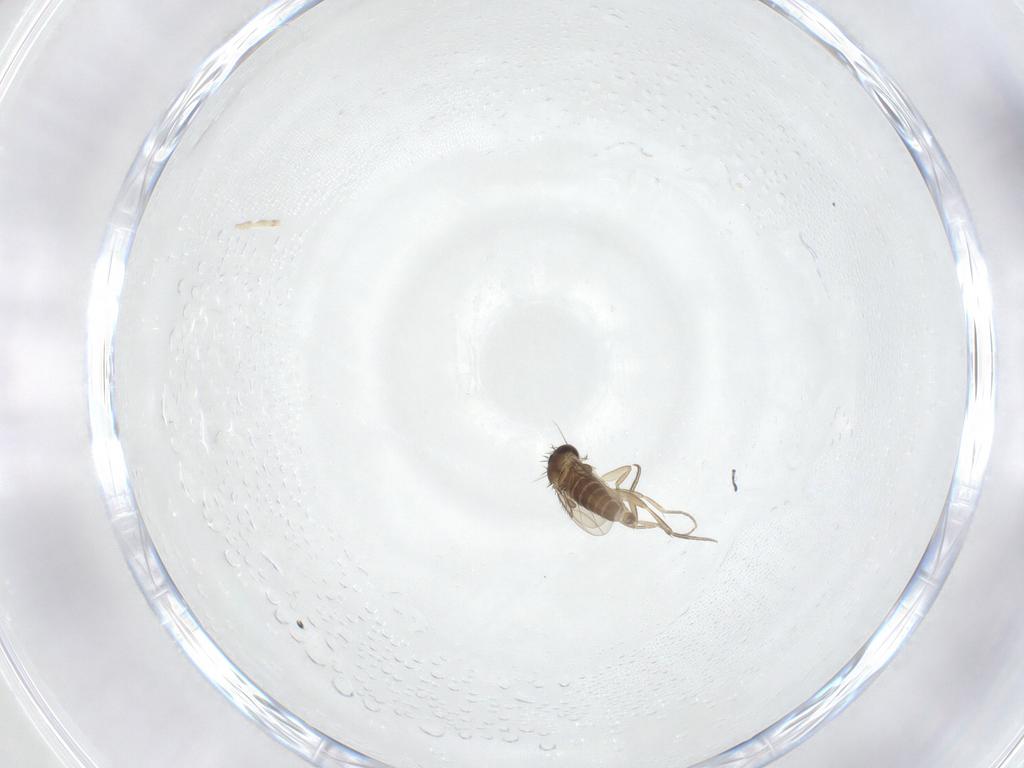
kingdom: Animalia
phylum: Arthropoda
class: Insecta
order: Diptera
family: Phoridae
